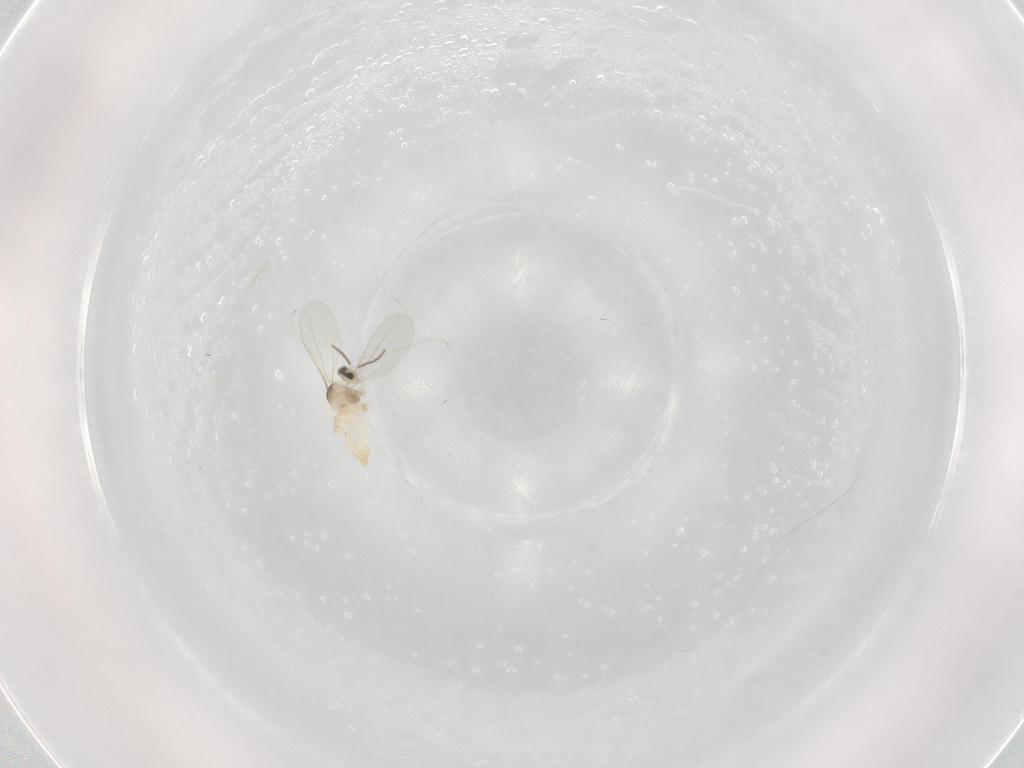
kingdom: Animalia
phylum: Arthropoda
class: Insecta
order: Diptera
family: Cecidomyiidae
